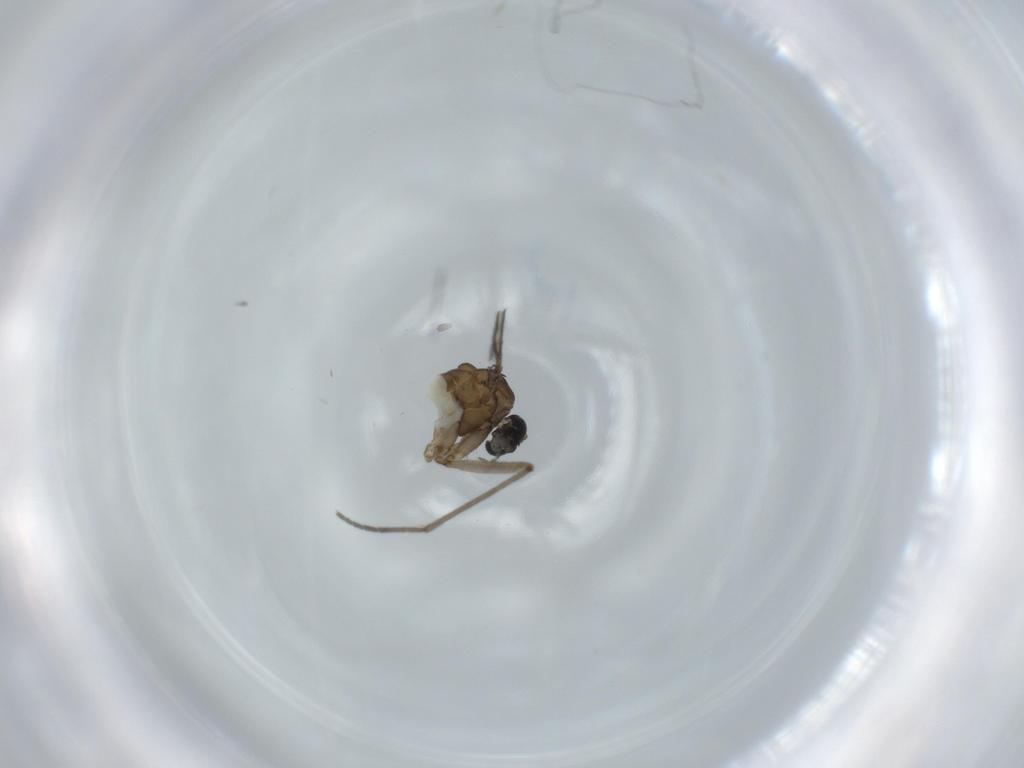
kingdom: Animalia
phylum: Arthropoda
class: Insecta
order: Diptera
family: Sciaridae
